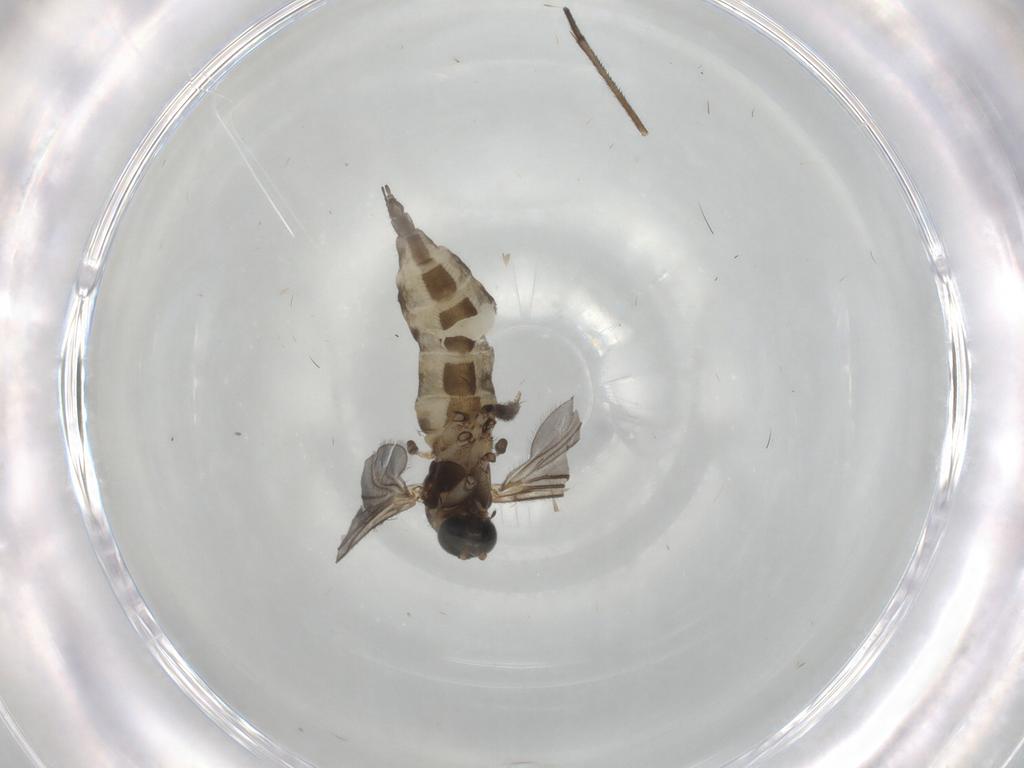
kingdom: Animalia
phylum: Arthropoda
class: Insecta
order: Diptera
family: Sciaridae
